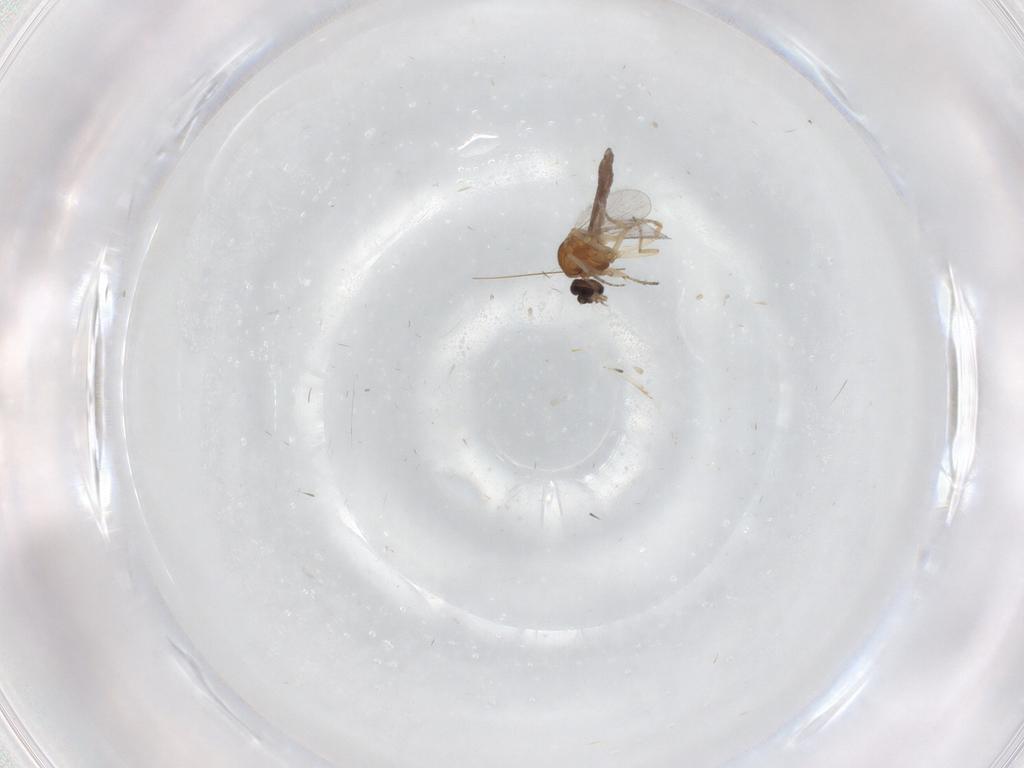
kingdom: Animalia
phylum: Arthropoda
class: Insecta
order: Diptera
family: Ceratopogonidae
